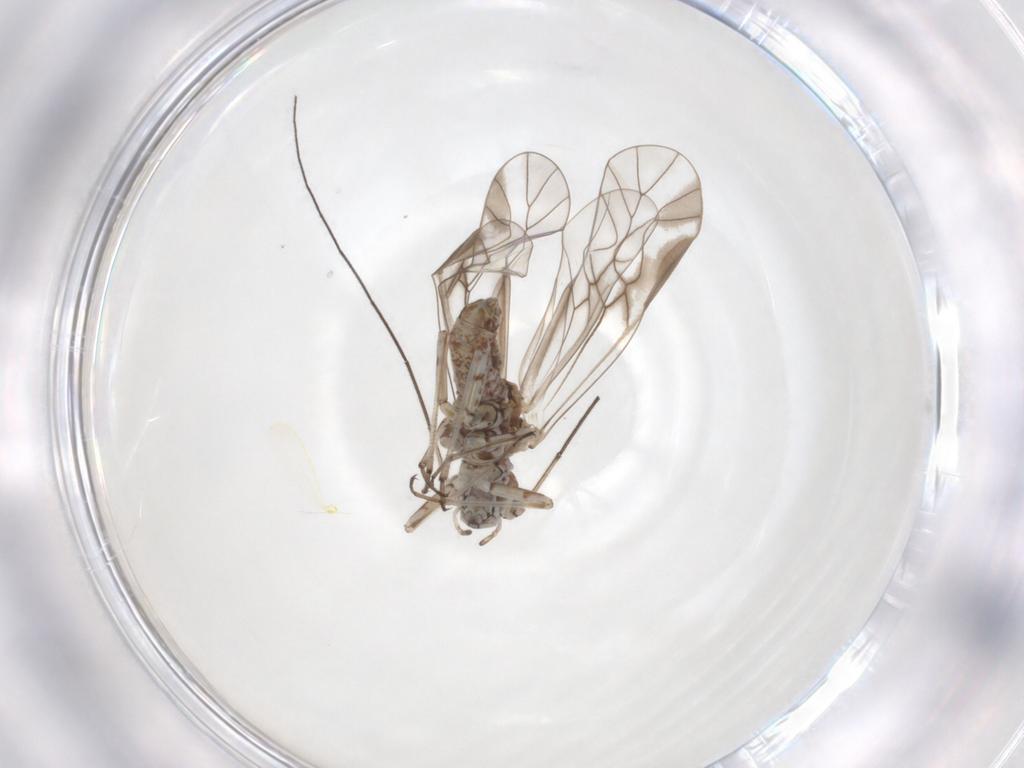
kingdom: Animalia
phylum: Arthropoda
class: Insecta
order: Psocodea
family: Psocidae
